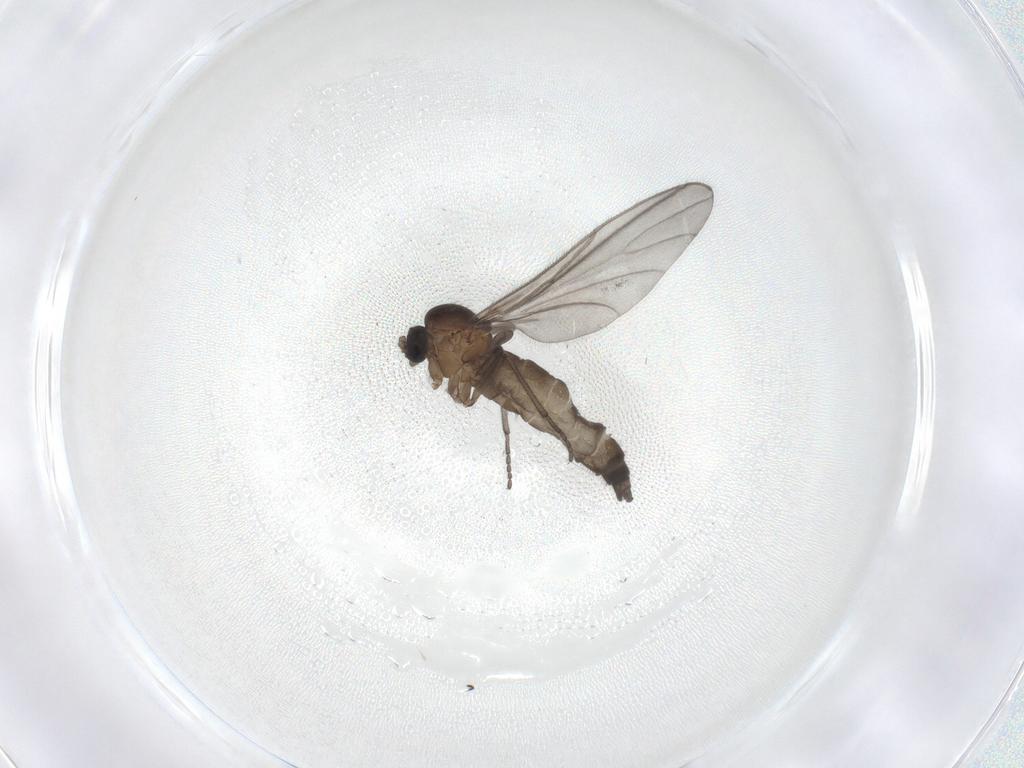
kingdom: Animalia
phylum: Arthropoda
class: Insecta
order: Diptera
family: Sciaridae
